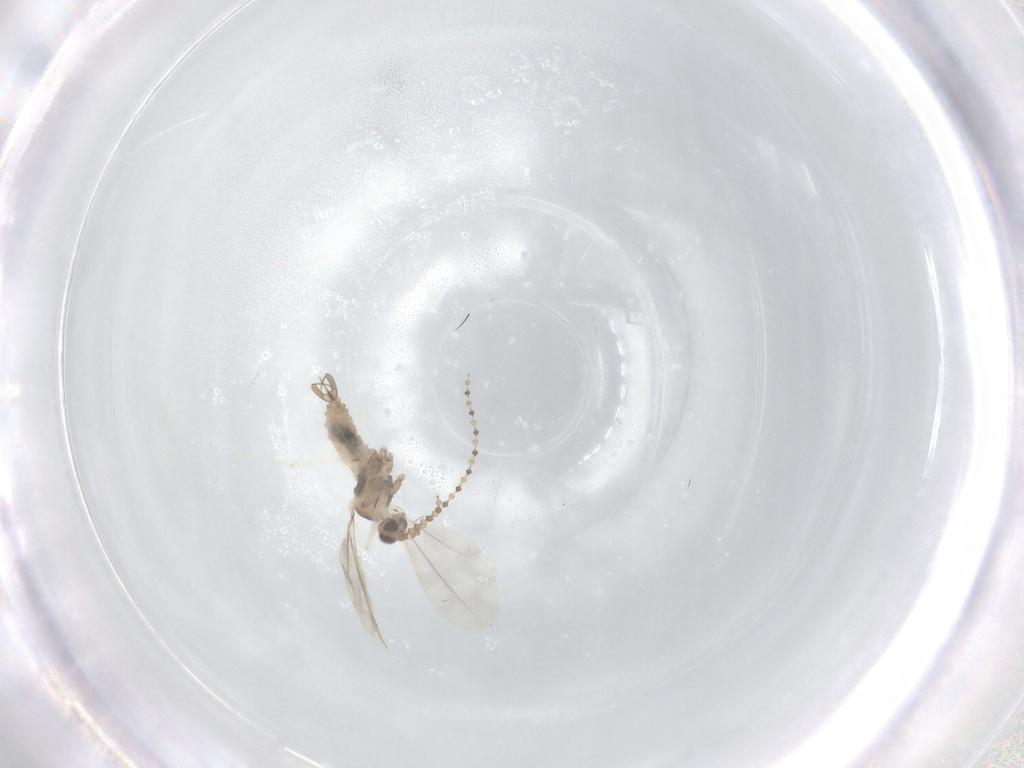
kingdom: Animalia
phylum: Arthropoda
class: Insecta
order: Diptera
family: Cecidomyiidae
